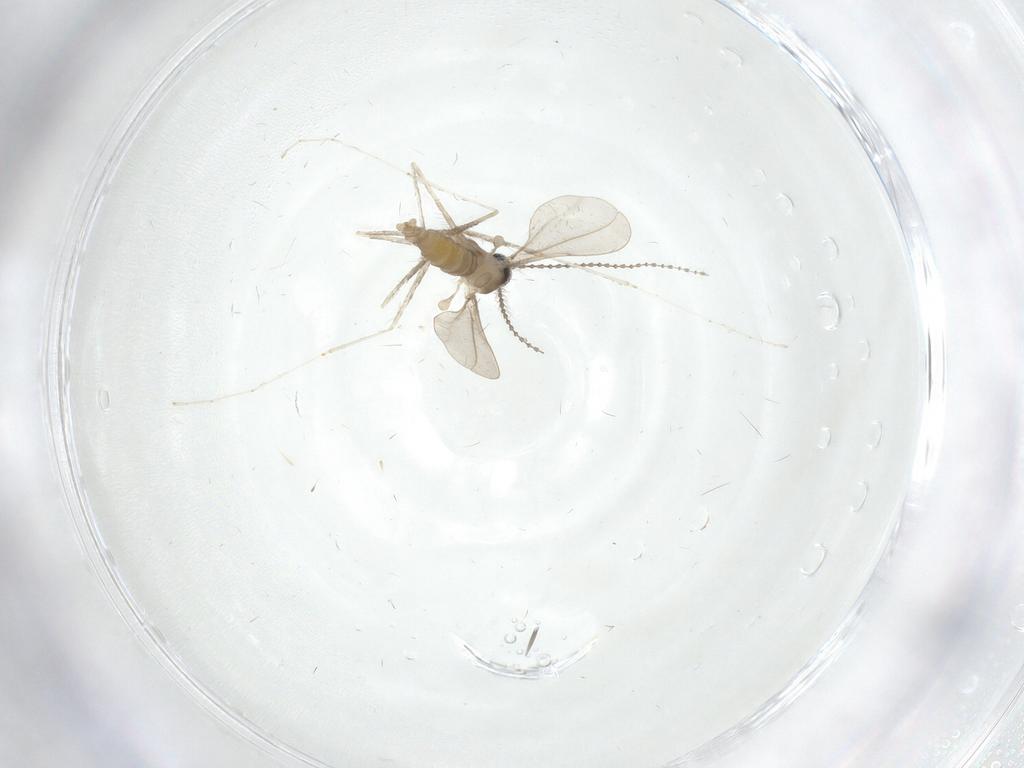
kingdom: Animalia
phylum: Arthropoda
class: Insecta
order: Diptera
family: Cecidomyiidae
